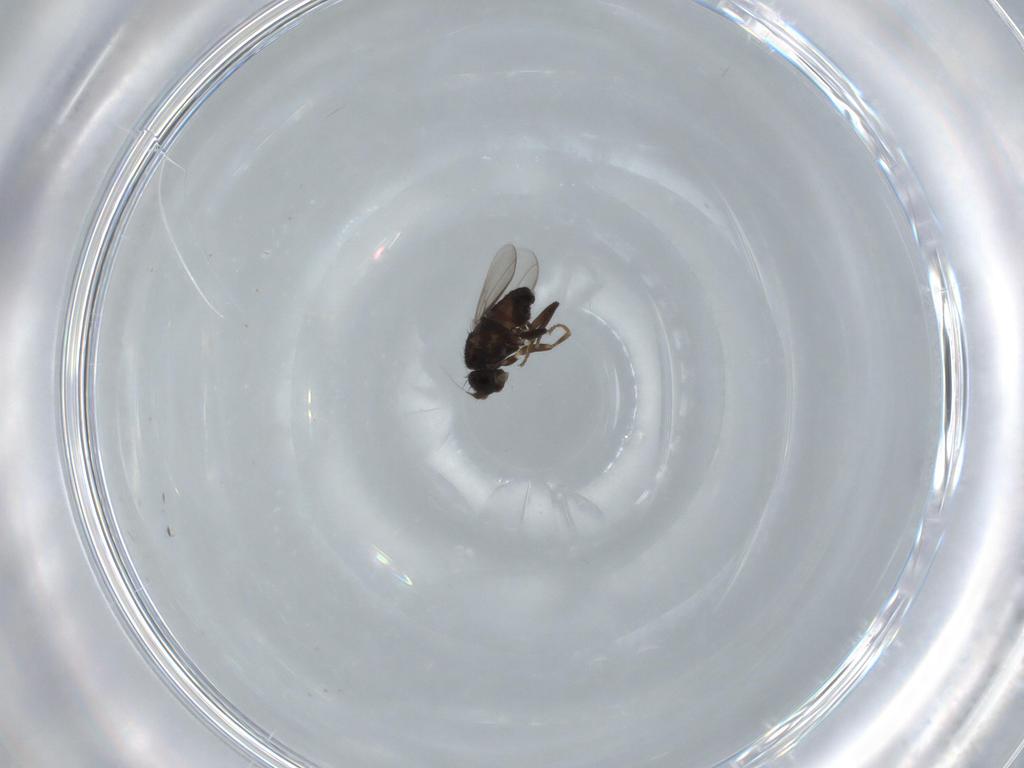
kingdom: Animalia
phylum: Arthropoda
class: Insecta
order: Diptera
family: Sphaeroceridae
